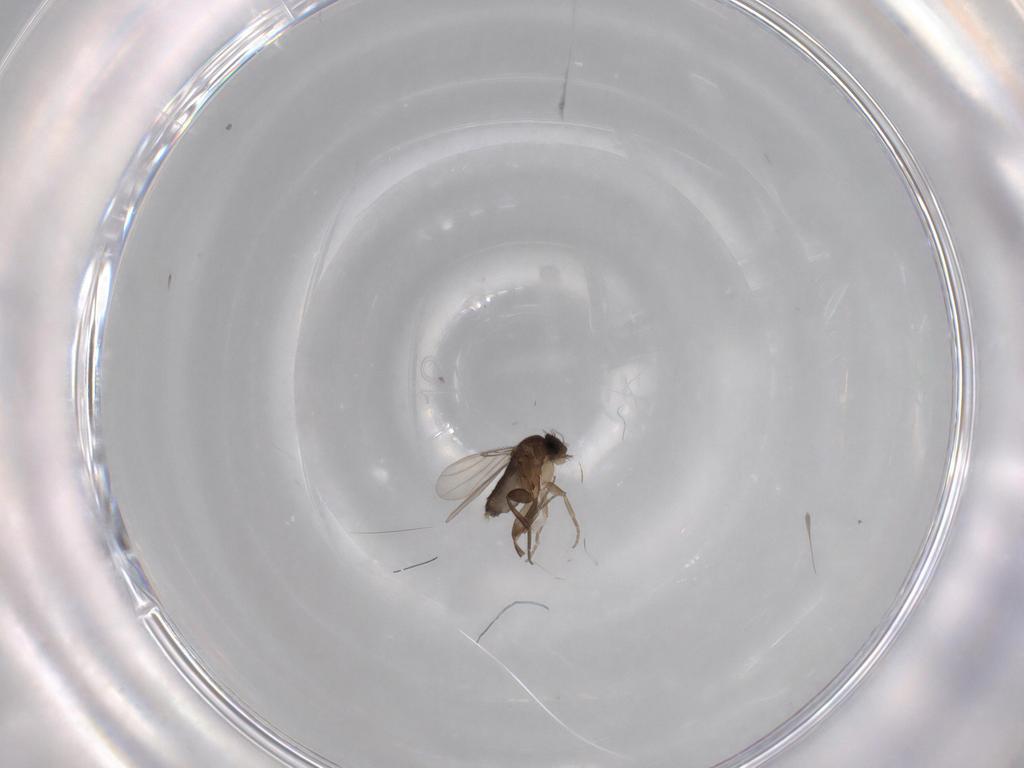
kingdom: Animalia
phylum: Arthropoda
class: Insecta
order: Diptera
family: Phoridae
